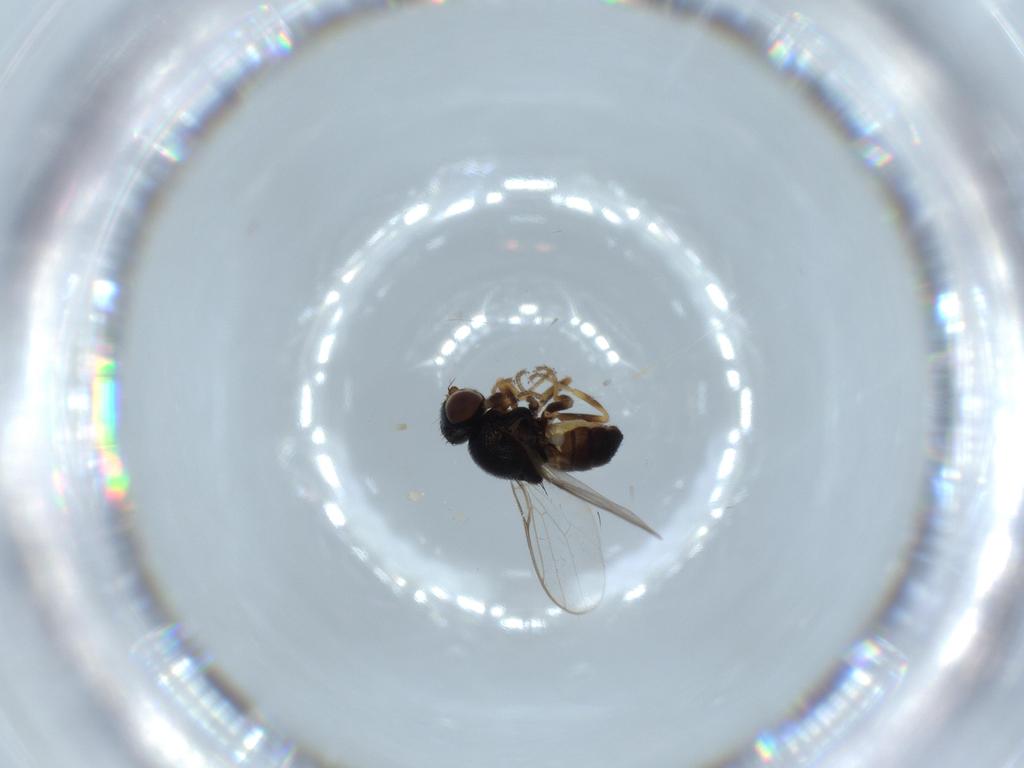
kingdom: Animalia
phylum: Arthropoda
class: Insecta
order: Diptera
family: Chloropidae
